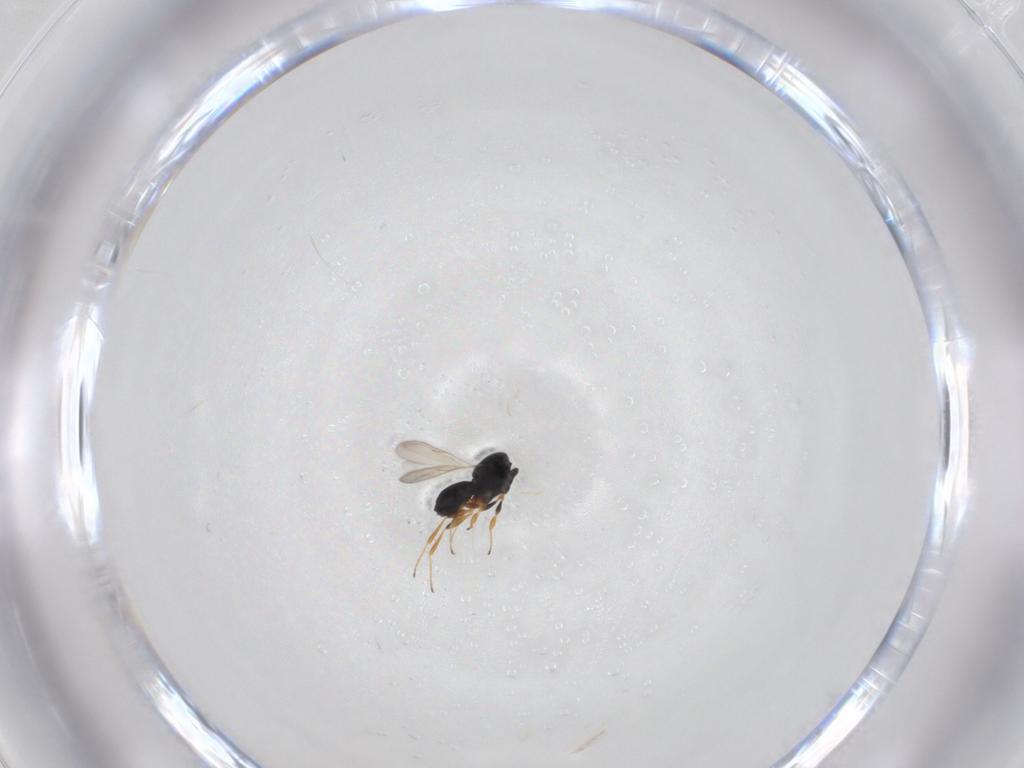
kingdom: Animalia
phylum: Arthropoda
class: Insecta
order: Hymenoptera
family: Scelionidae
